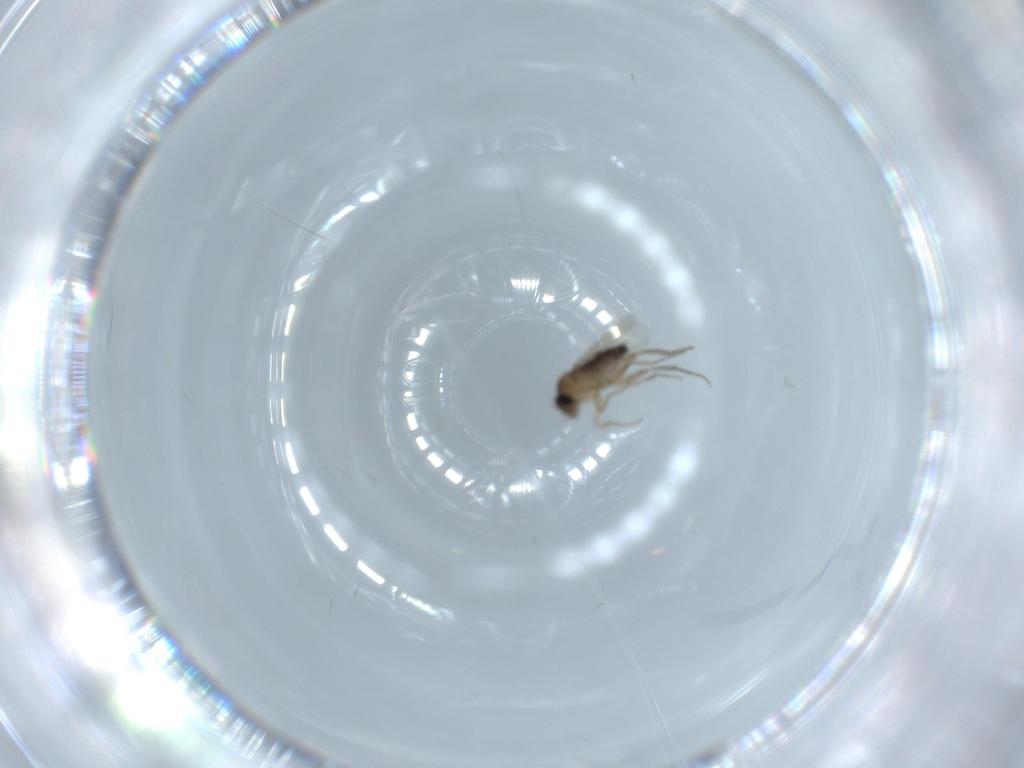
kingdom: Animalia
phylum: Arthropoda
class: Insecta
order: Diptera
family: Phoridae
